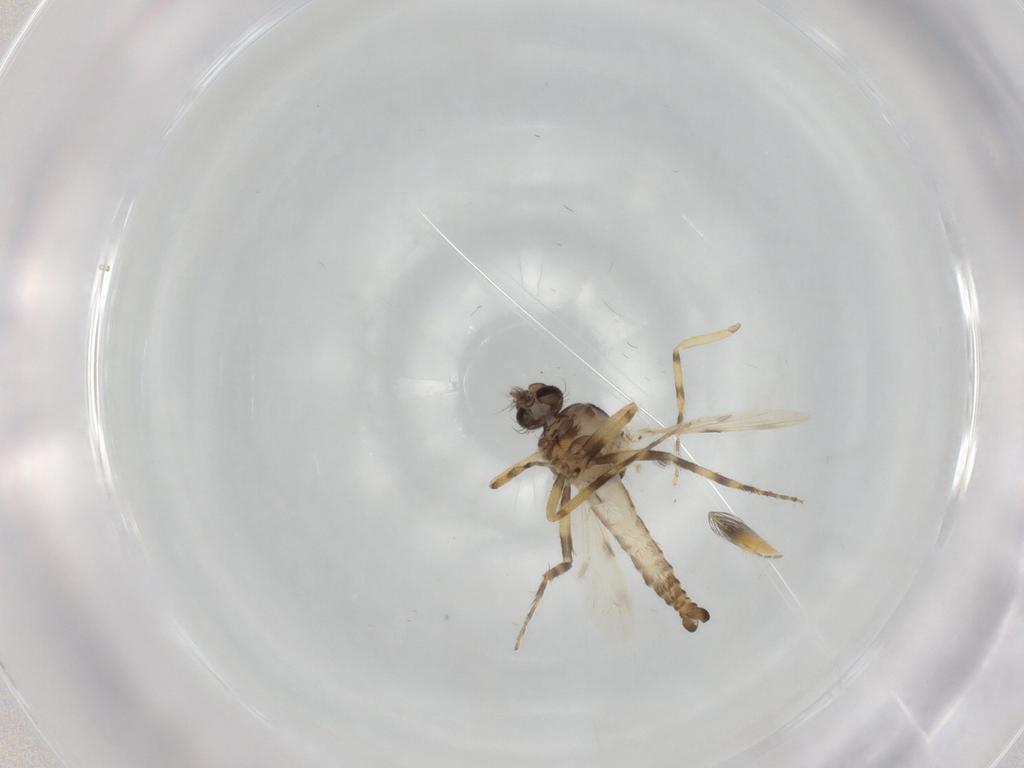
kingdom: Animalia
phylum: Arthropoda
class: Insecta
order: Diptera
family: Ceratopogonidae
